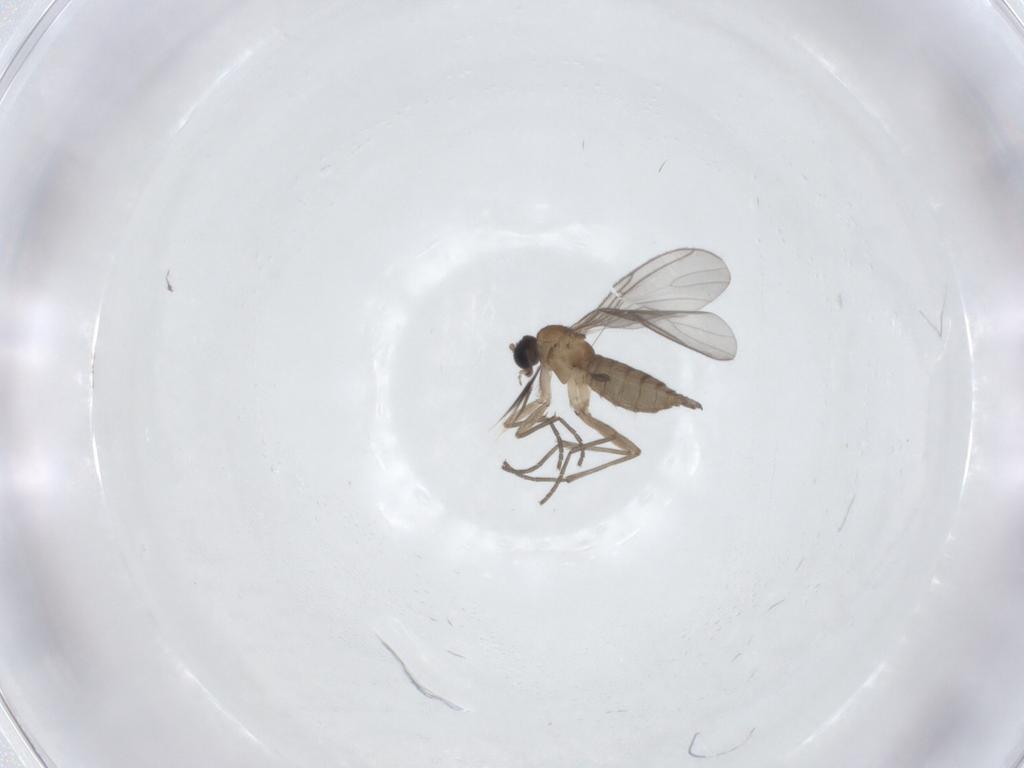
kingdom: Animalia
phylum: Arthropoda
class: Insecta
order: Diptera
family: Sciaridae
